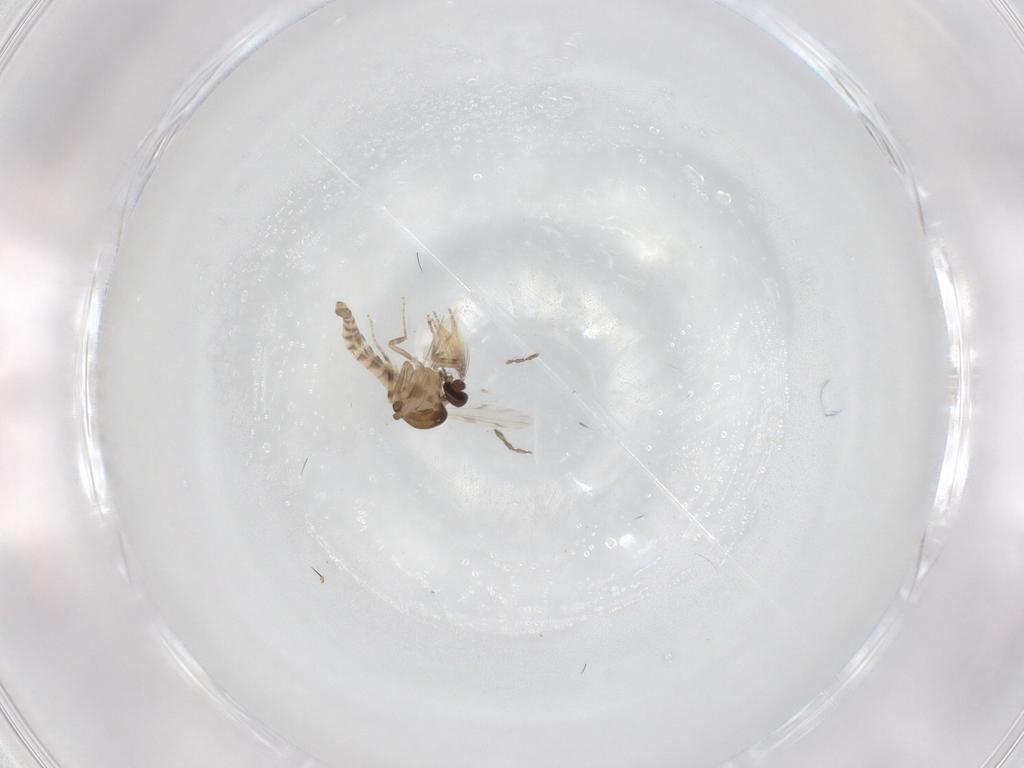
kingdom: Animalia
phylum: Arthropoda
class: Insecta
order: Diptera
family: Ceratopogonidae
